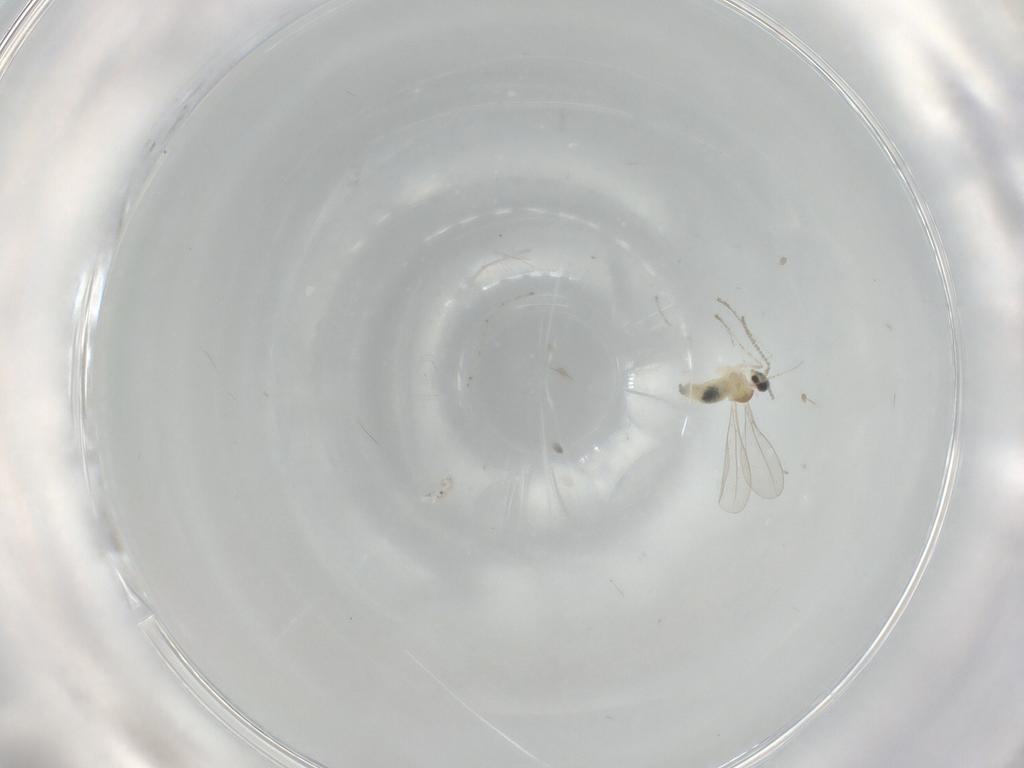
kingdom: Animalia
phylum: Arthropoda
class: Insecta
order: Diptera
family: Cecidomyiidae
